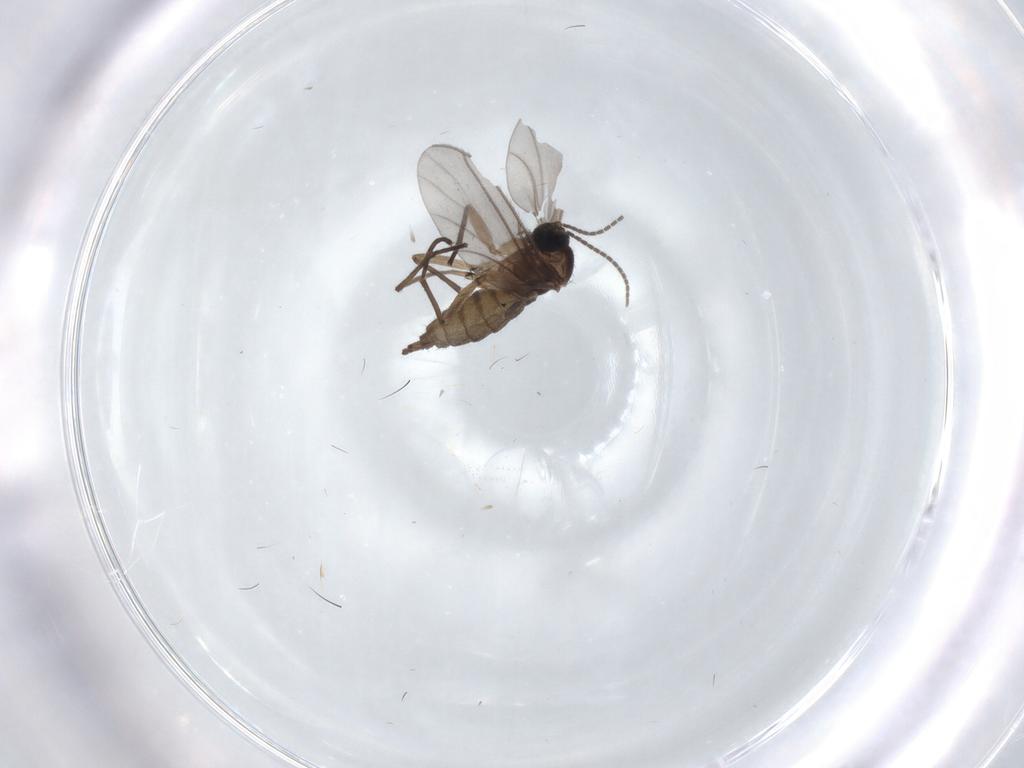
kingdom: Animalia
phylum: Arthropoda
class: Insecta
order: Diptera
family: Sciaridae
